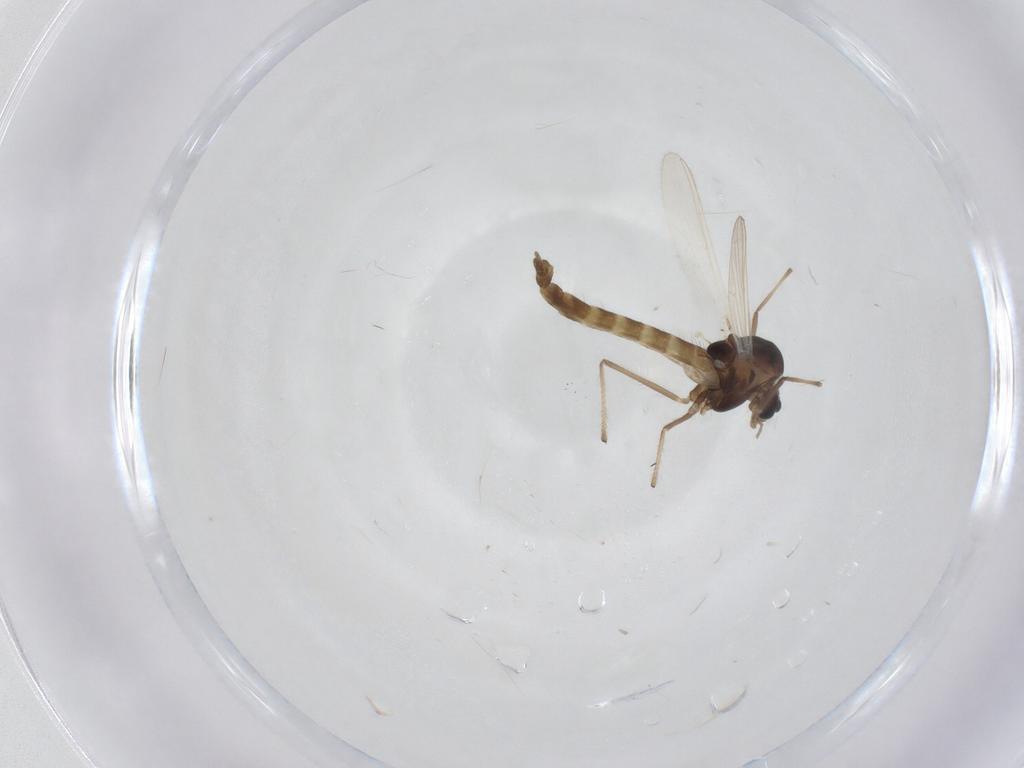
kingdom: Animalia
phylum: Arthropoda
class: Insecta
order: Diptera
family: Chironomidae
